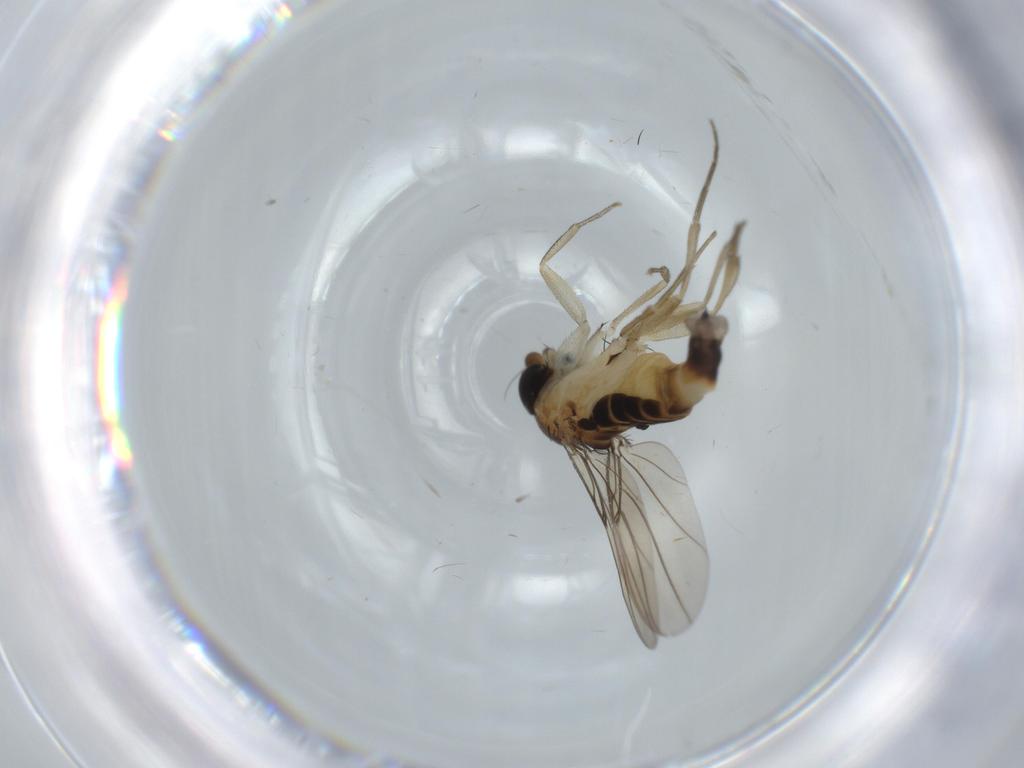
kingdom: Animalia
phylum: Arthropoda
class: Insecta
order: Diptera
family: Phoridae
